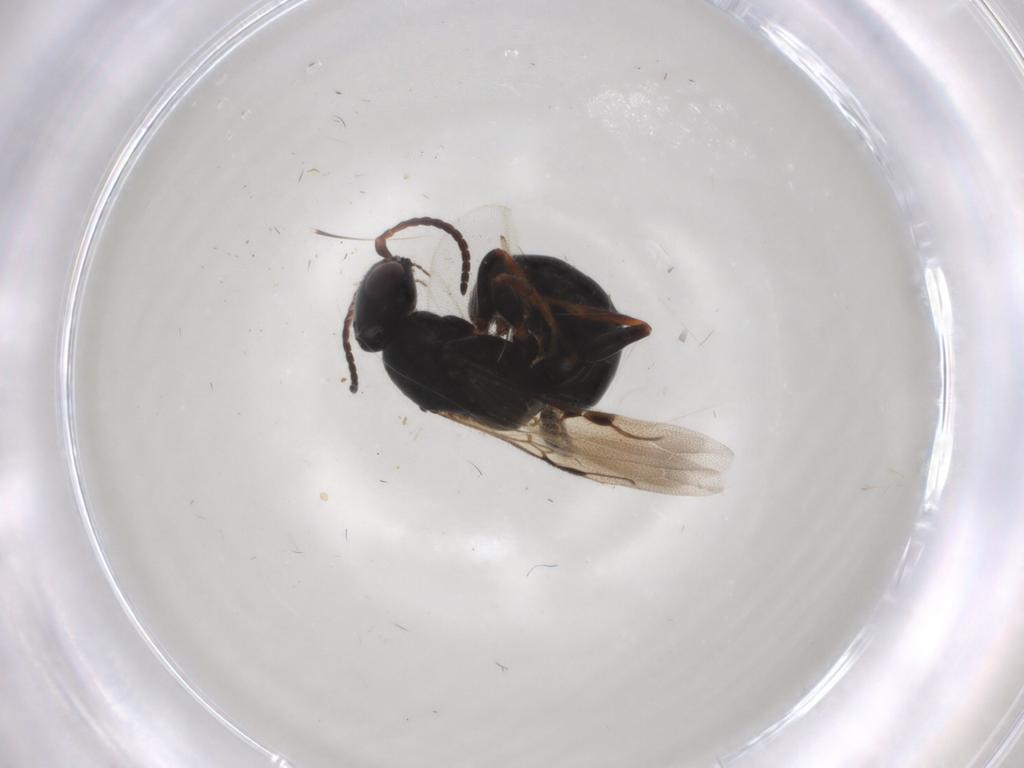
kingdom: Animalia
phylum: Arthropoda
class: Insecta
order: Hymenoptera
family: Bethylidae
